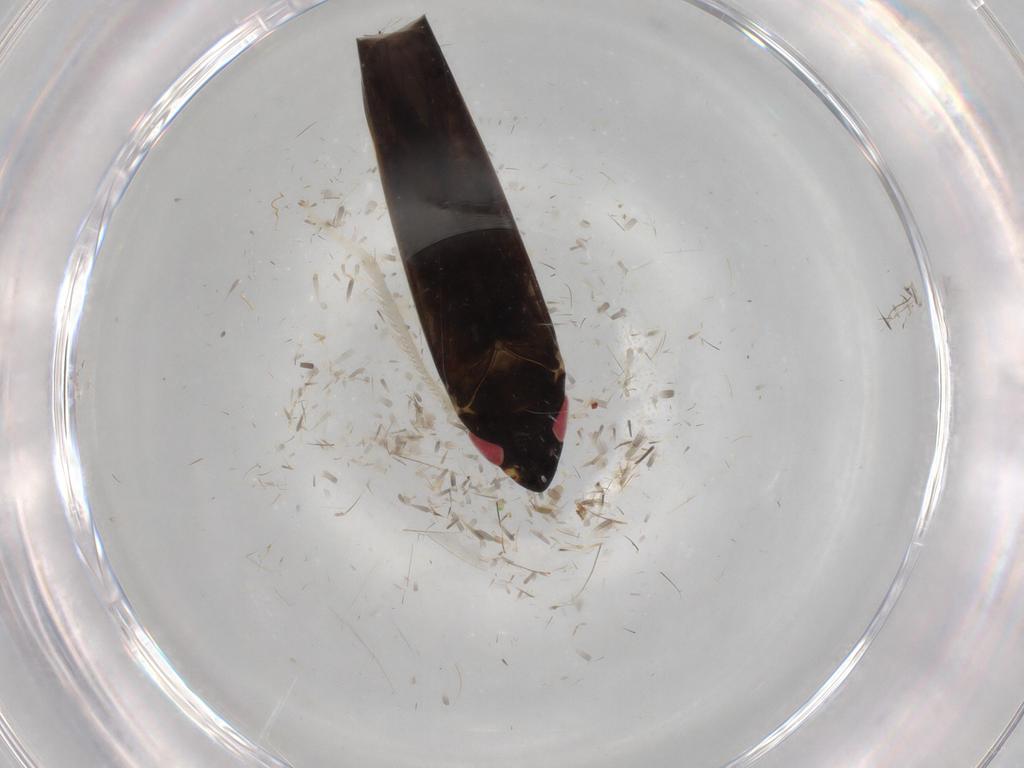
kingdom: Animalia
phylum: Arthropoda
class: Insecta
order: Hemiptera
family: Cicadellidae
